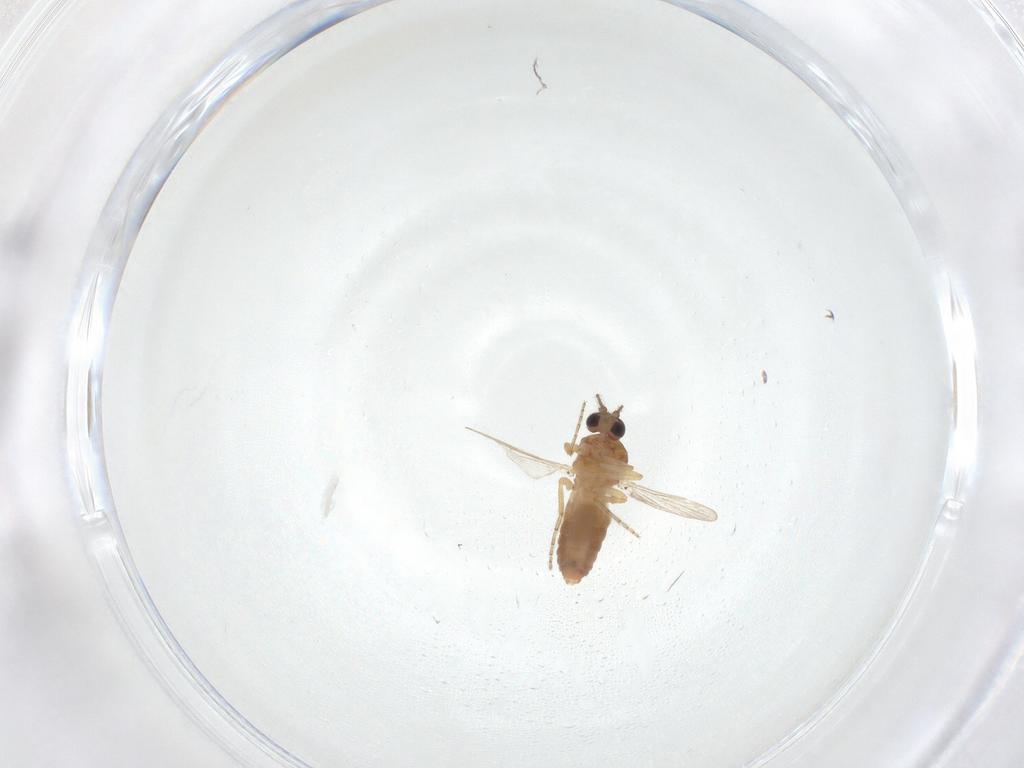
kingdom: Animalia
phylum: Arthropoda
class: Insecta
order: Diptera
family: Ceratopogonidae
